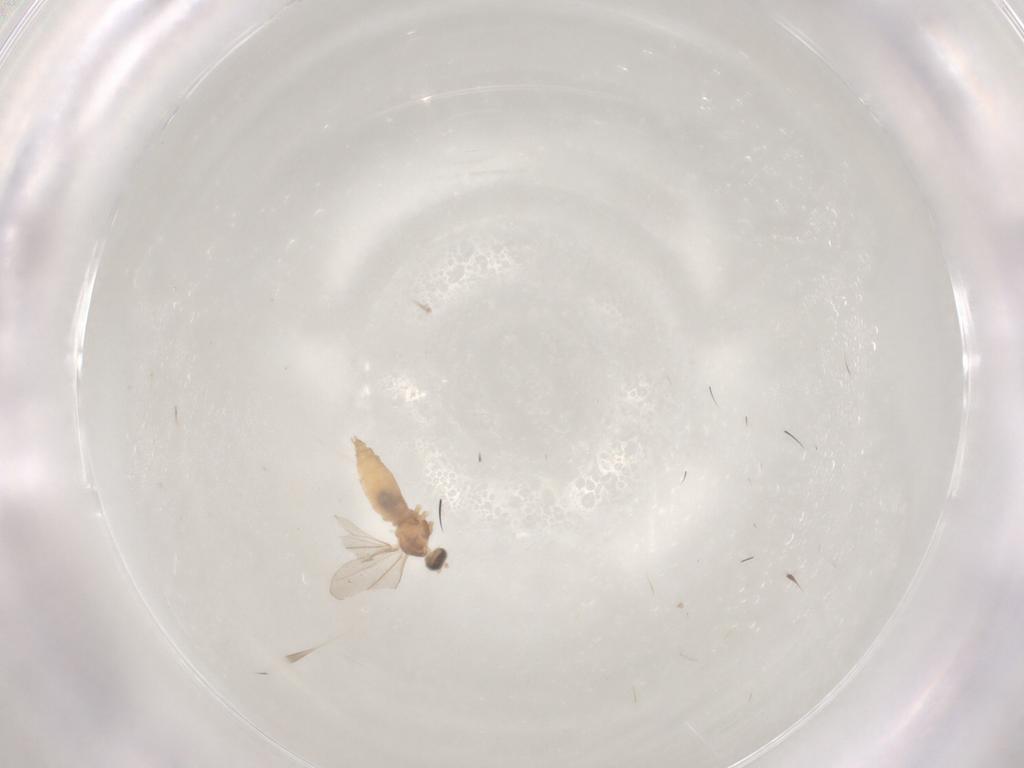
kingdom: Animalia
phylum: Arthropoda
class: Insecta
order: Diptera
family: Cecidomyiidae
